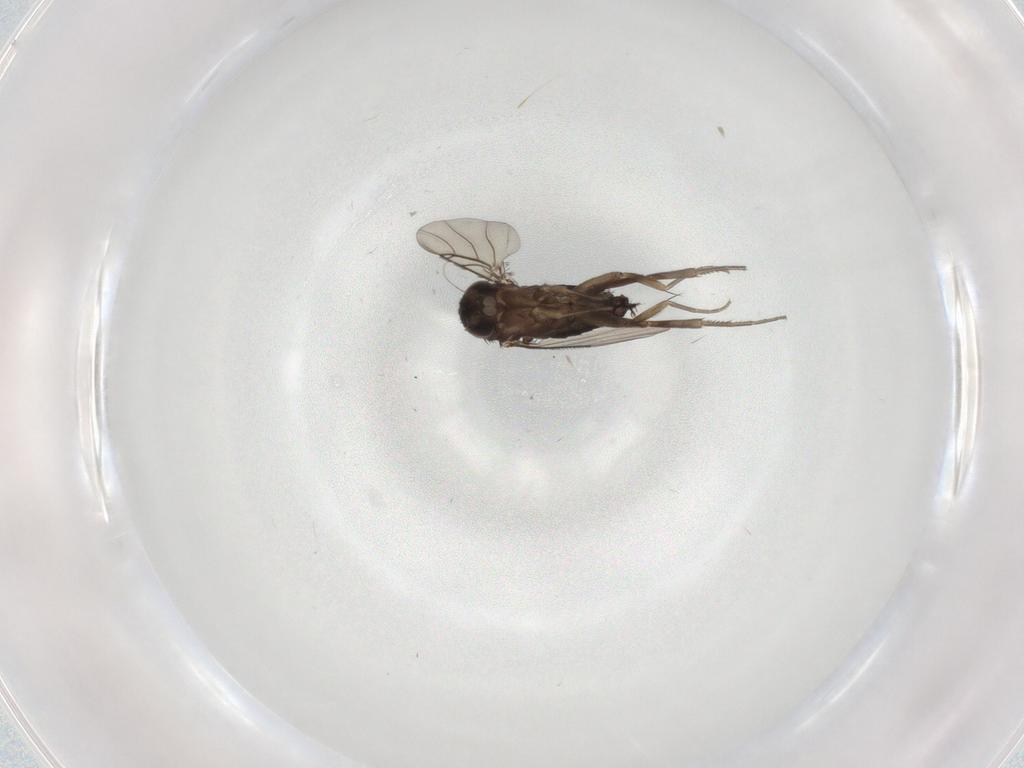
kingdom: Animalia
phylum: Arthropoda
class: Insecta
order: Diptera
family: Phoridae
